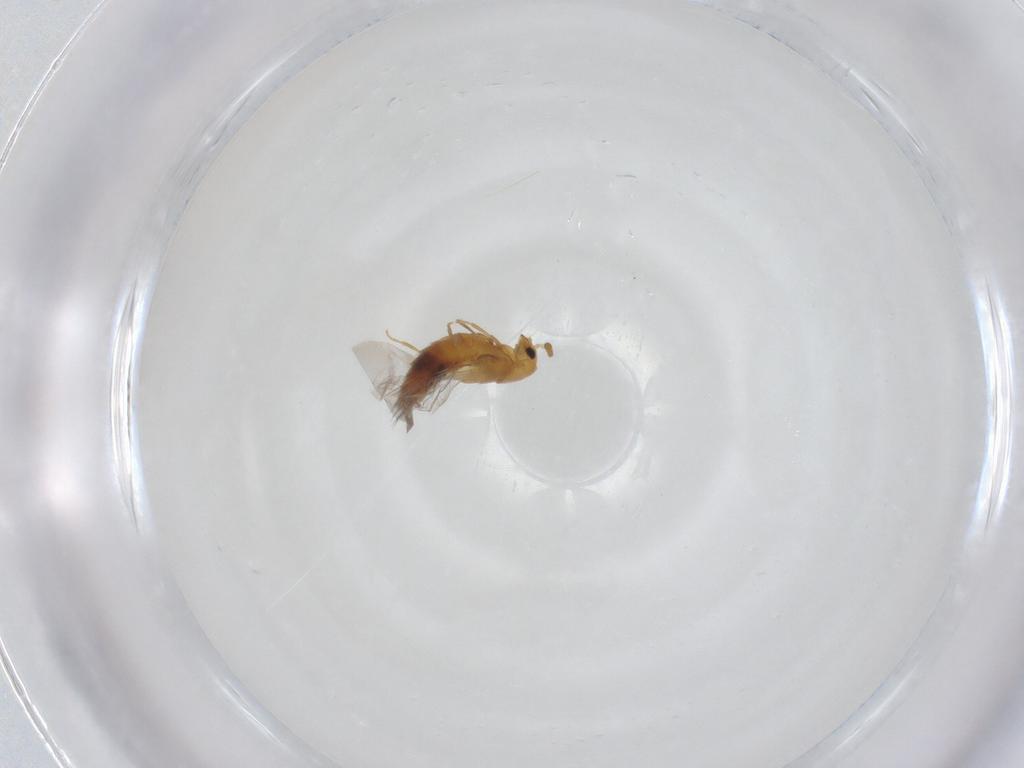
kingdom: Animalia
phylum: Arthropoda
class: Insecta
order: Coleoptera
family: Staphylinidae
